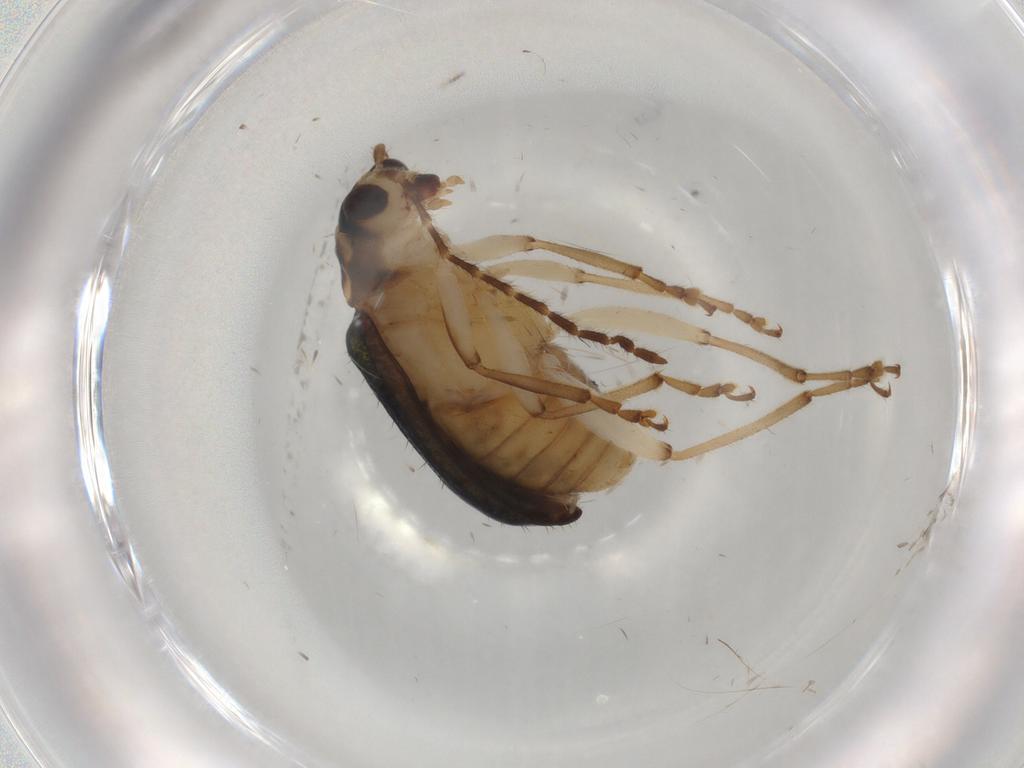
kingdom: Animalia
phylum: Arthropoda
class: Insecta
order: Coleoptera
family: Chrysomelidae
